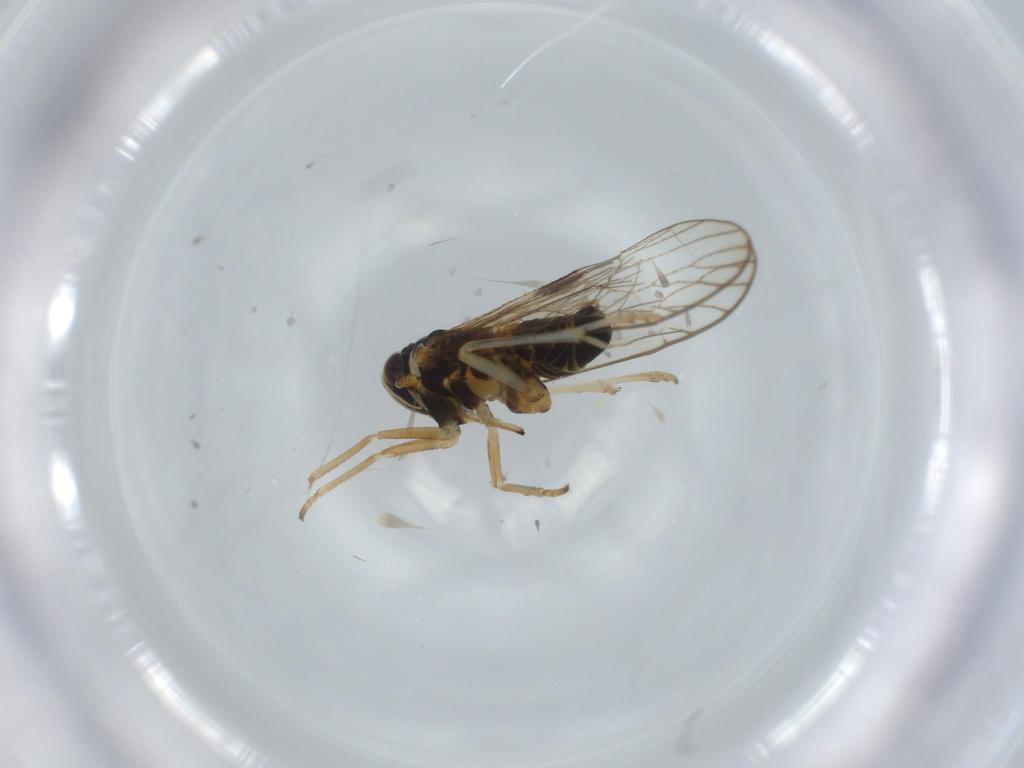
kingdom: Animalia
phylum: Arthropoda
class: Insecta
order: Diptera
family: Cecidomyiidae
